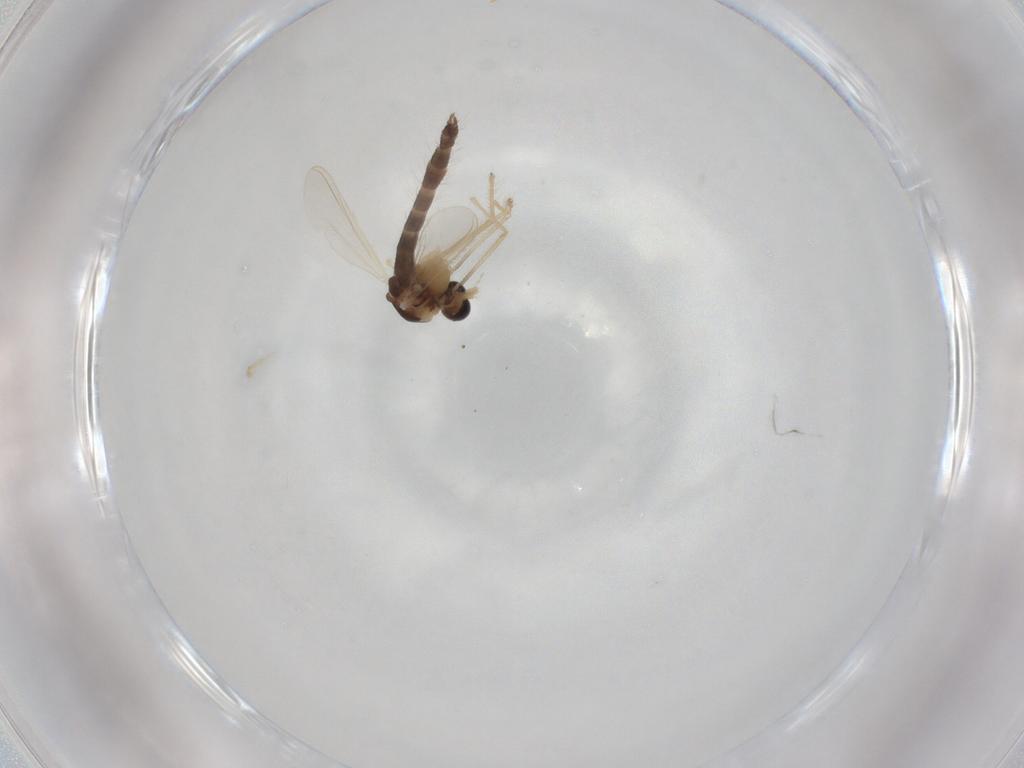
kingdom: Animalia
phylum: Arthropoda
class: Insecta
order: Diptera
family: Chironomidae
